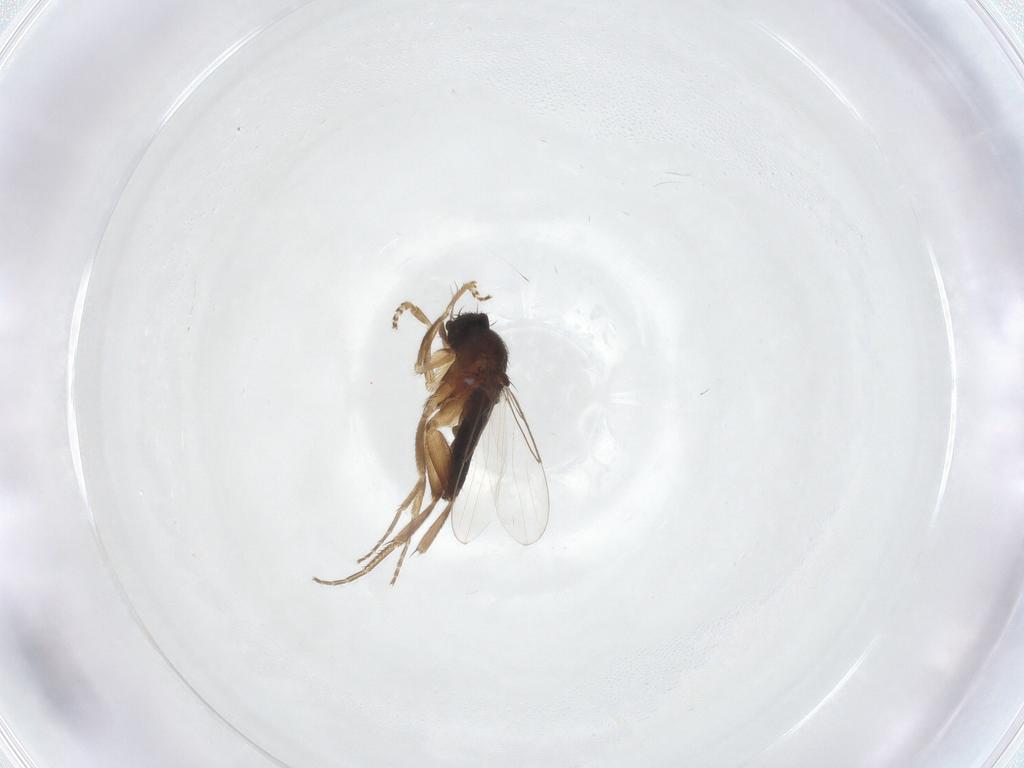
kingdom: Animalia
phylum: Arthropoda
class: Insecta
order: Diptera
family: Phoridae
